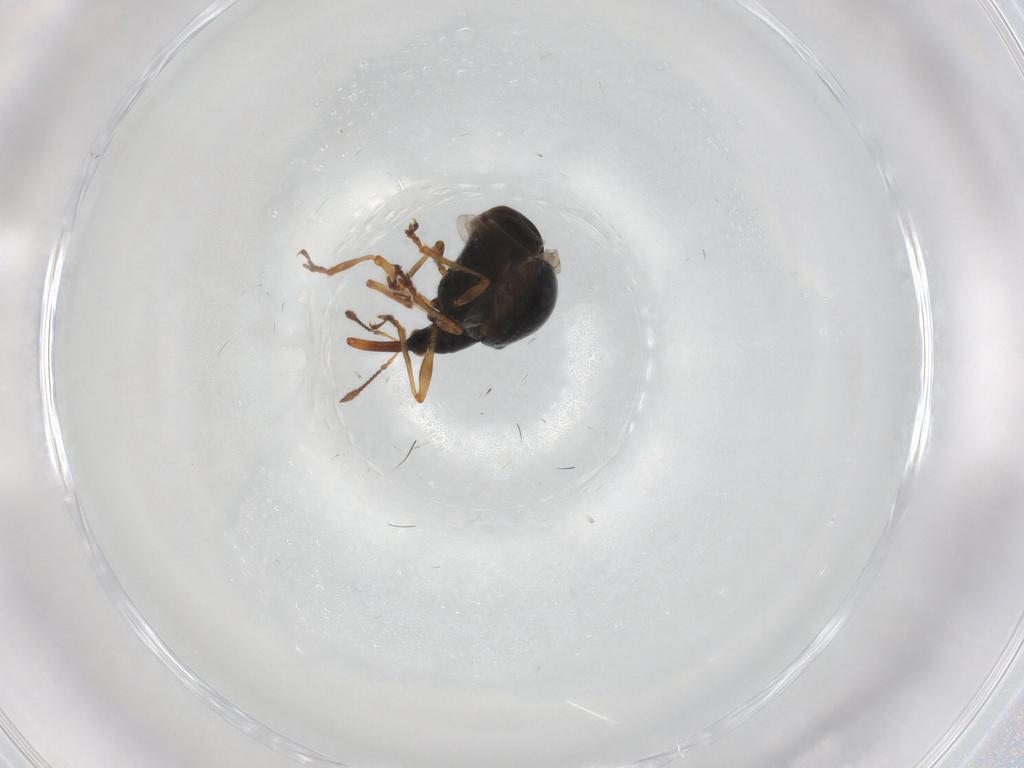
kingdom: Animalia
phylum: Arthropoda
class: Insecta
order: Coleoptera
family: Brentidae
